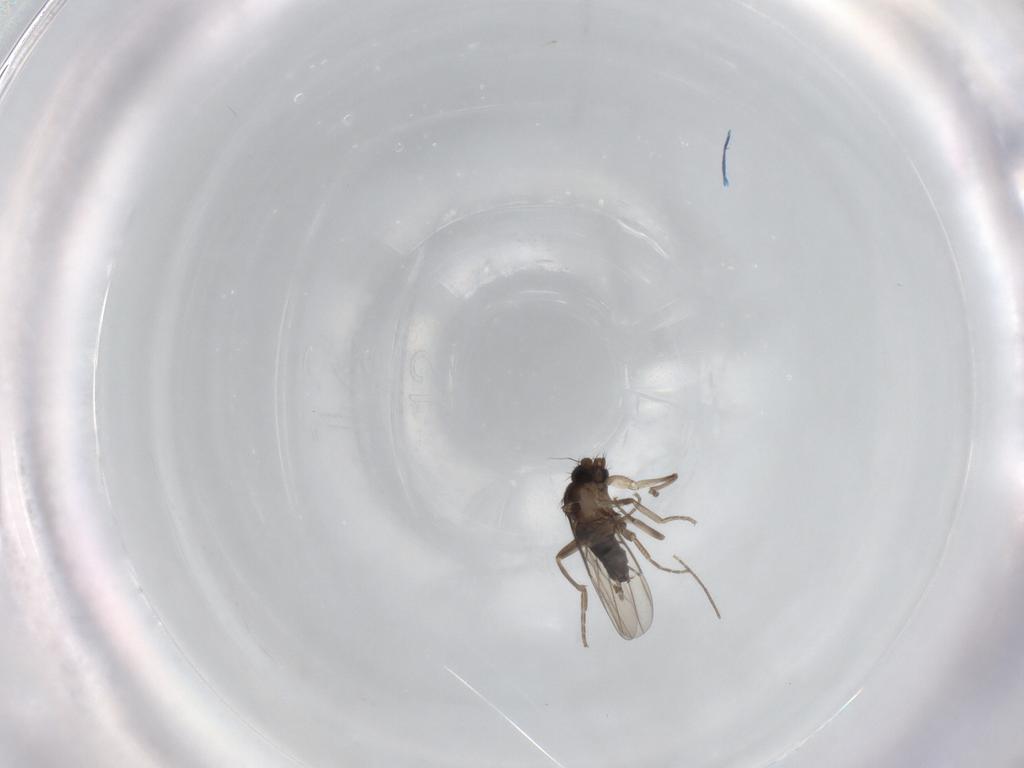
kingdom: Animalia
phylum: Arthropoda
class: Insecta
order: Diptera
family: Chironomidae
